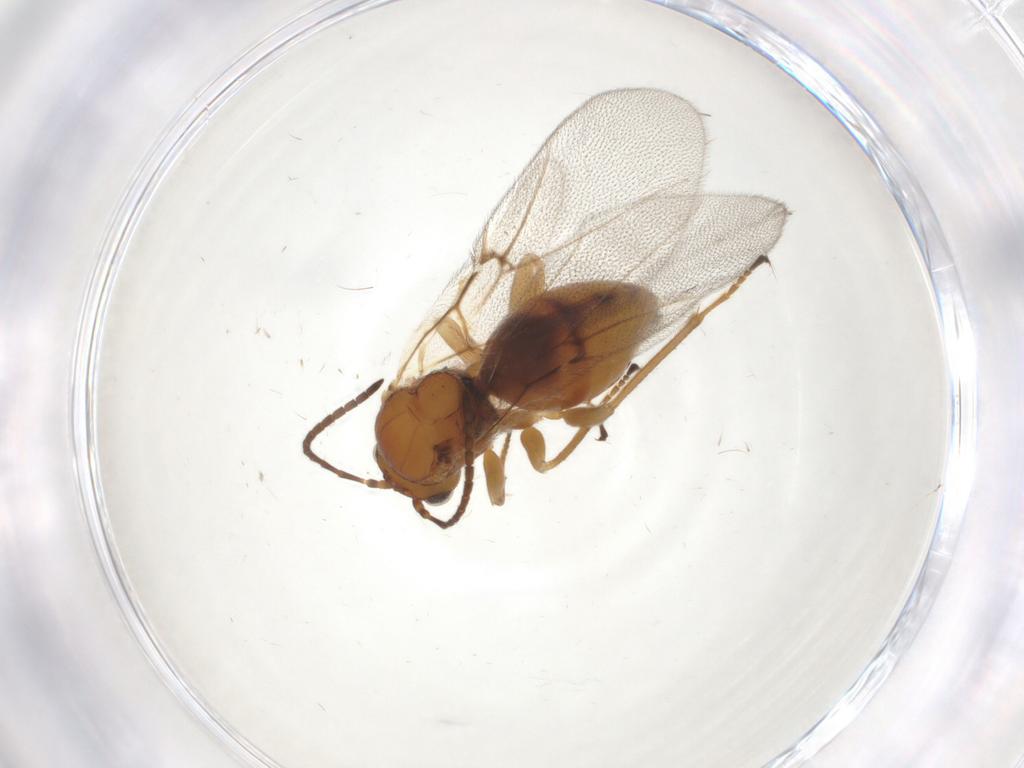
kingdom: Animalia
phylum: Arthropoda
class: Insecta
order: Hymenoptera
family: Cynipidae
